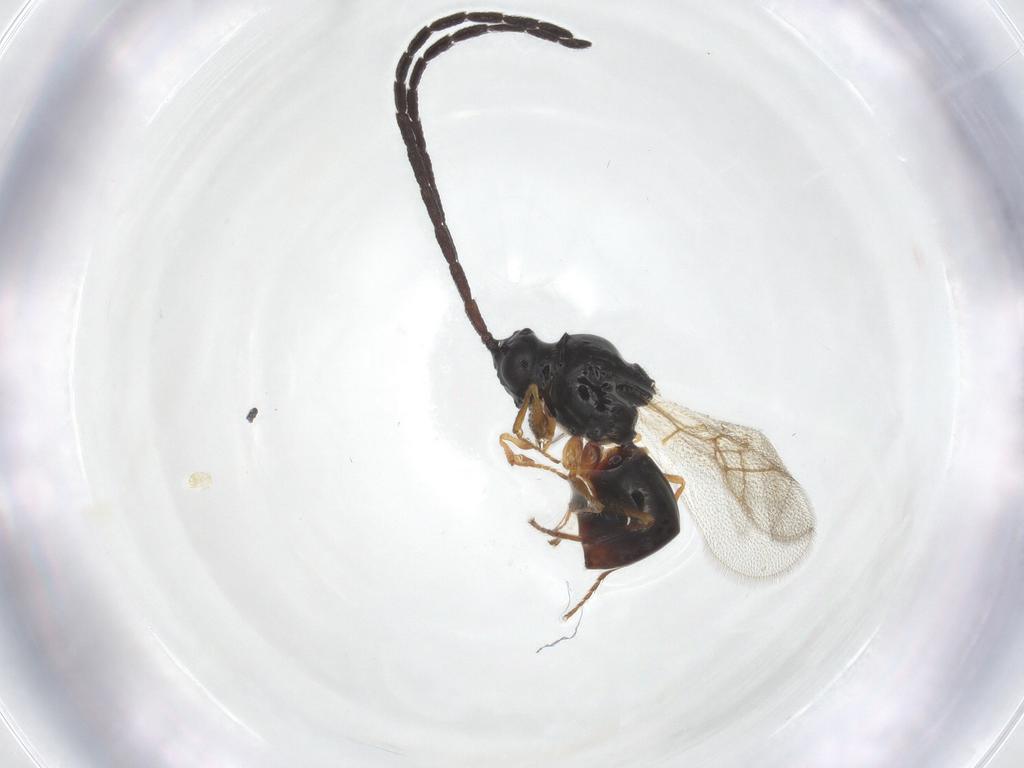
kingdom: Animalia
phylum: Arthropoda
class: Insecta
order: Hymenoptera
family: Figitidae
